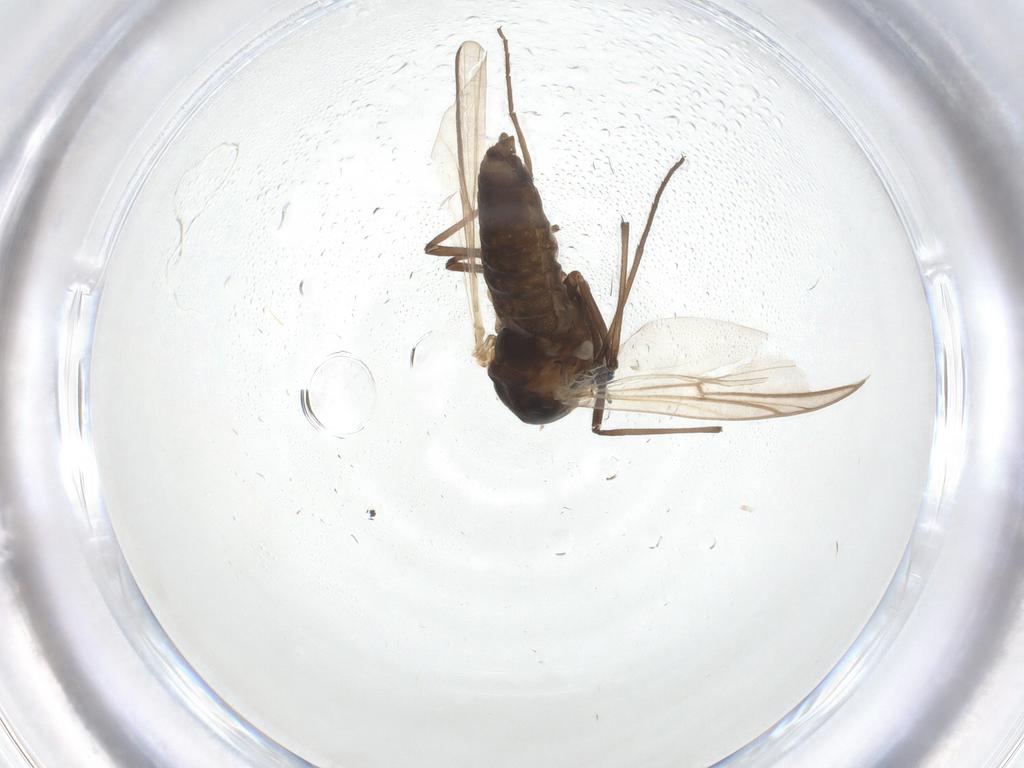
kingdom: Animalia
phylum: Arthropoda
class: Insecta
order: Diptera
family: Chironomidae
